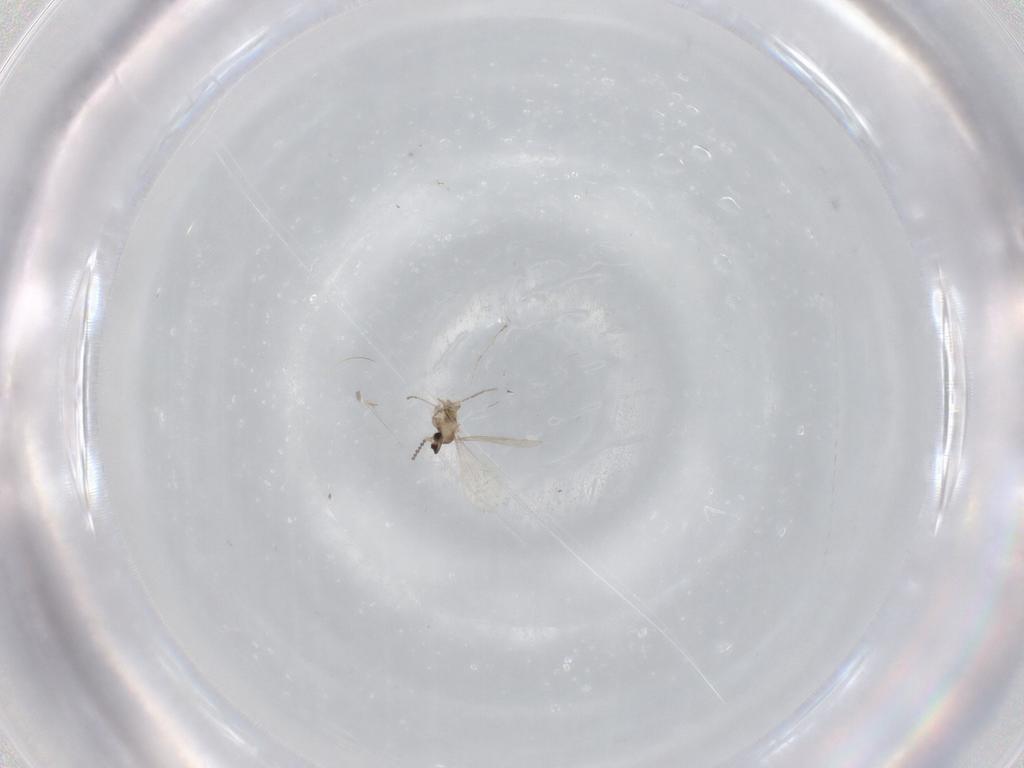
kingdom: Animalia
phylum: Arthropoda
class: Insecta
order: Diptera
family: Cecidomyiidae
